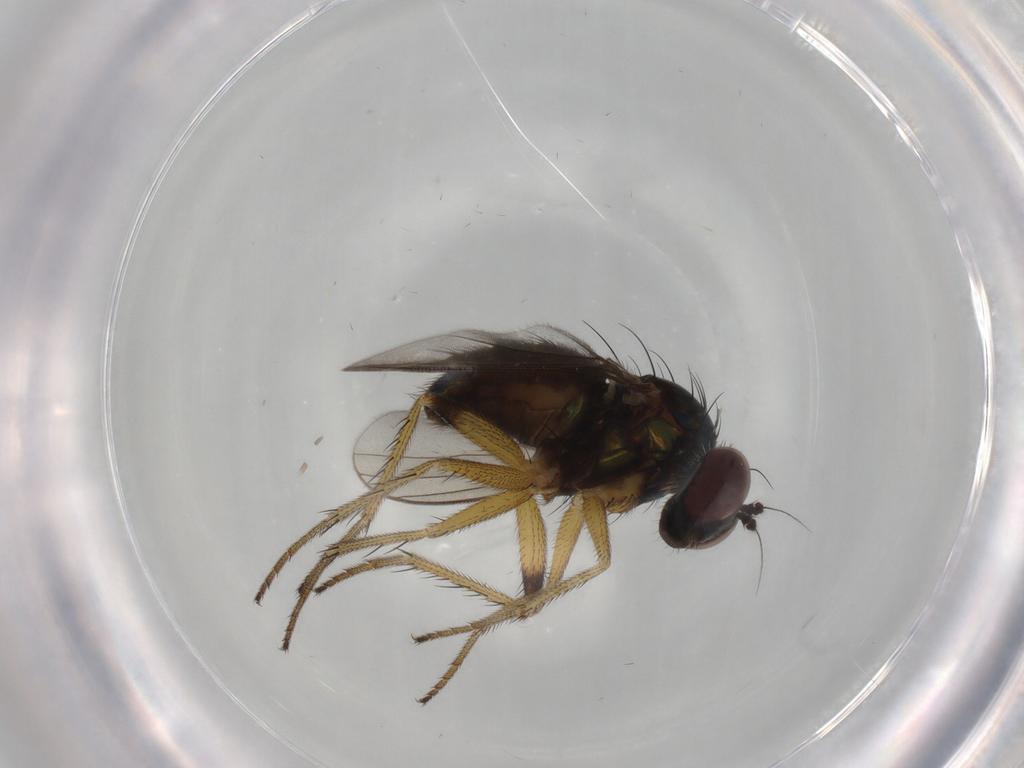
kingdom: Animalia
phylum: Arthropoda
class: Insecta
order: Diptera
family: Dolichopodidae
